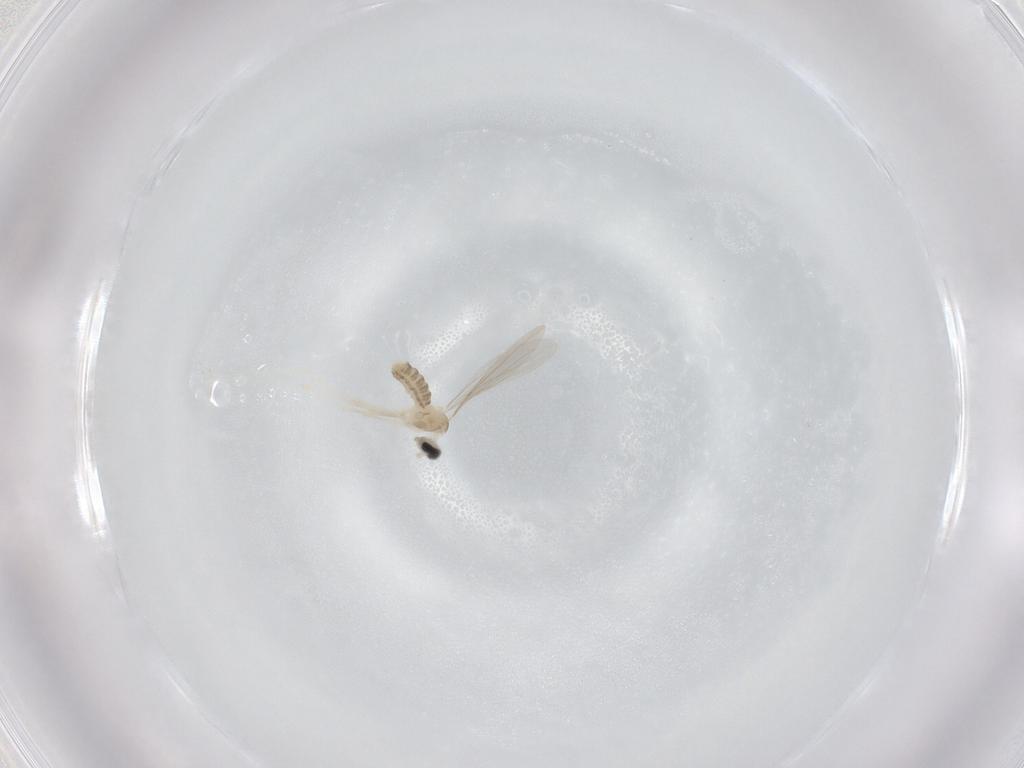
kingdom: Animalia
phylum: Arthropoda
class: Insecta
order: Diptera
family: Cecidomyiidae
